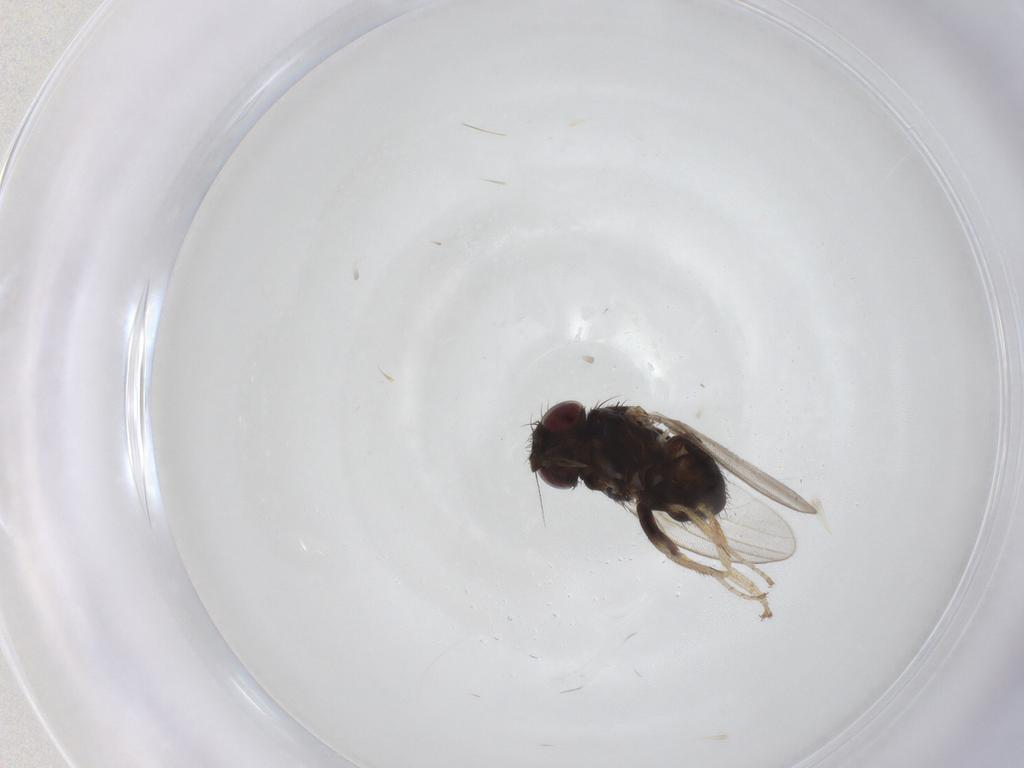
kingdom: Animalia
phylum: Arthropoda
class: Insecta
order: Diptera
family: Milichiidae
